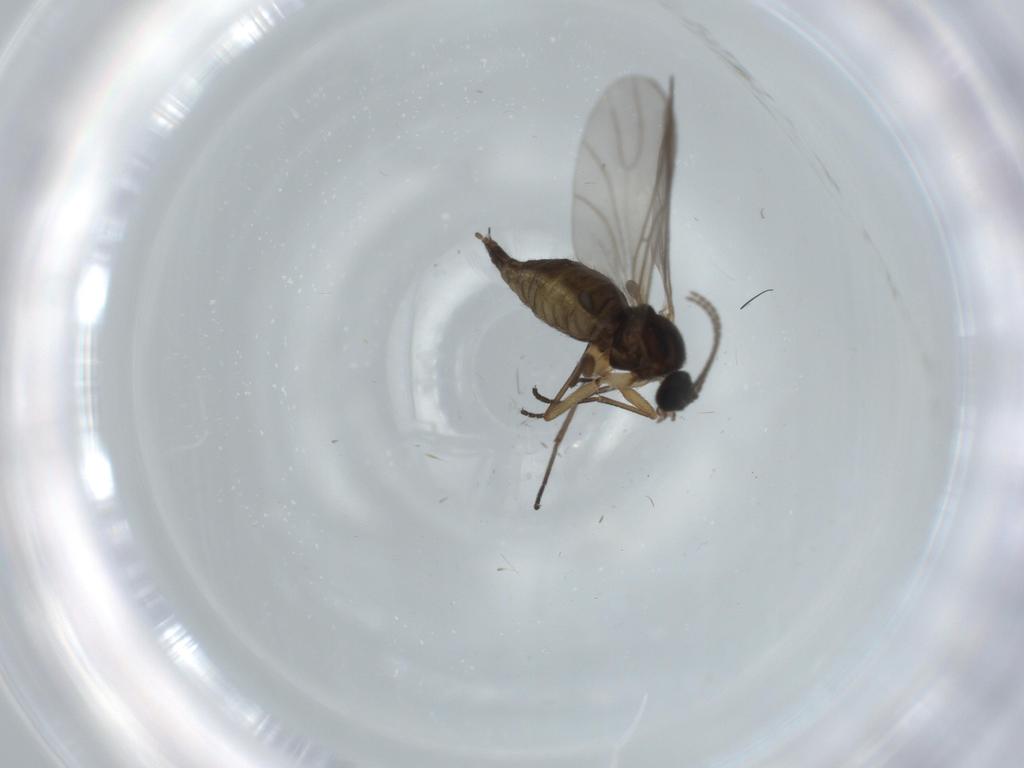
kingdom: Animalia
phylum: Arthropoda
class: Insecta
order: Diptera
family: Sciaridae
